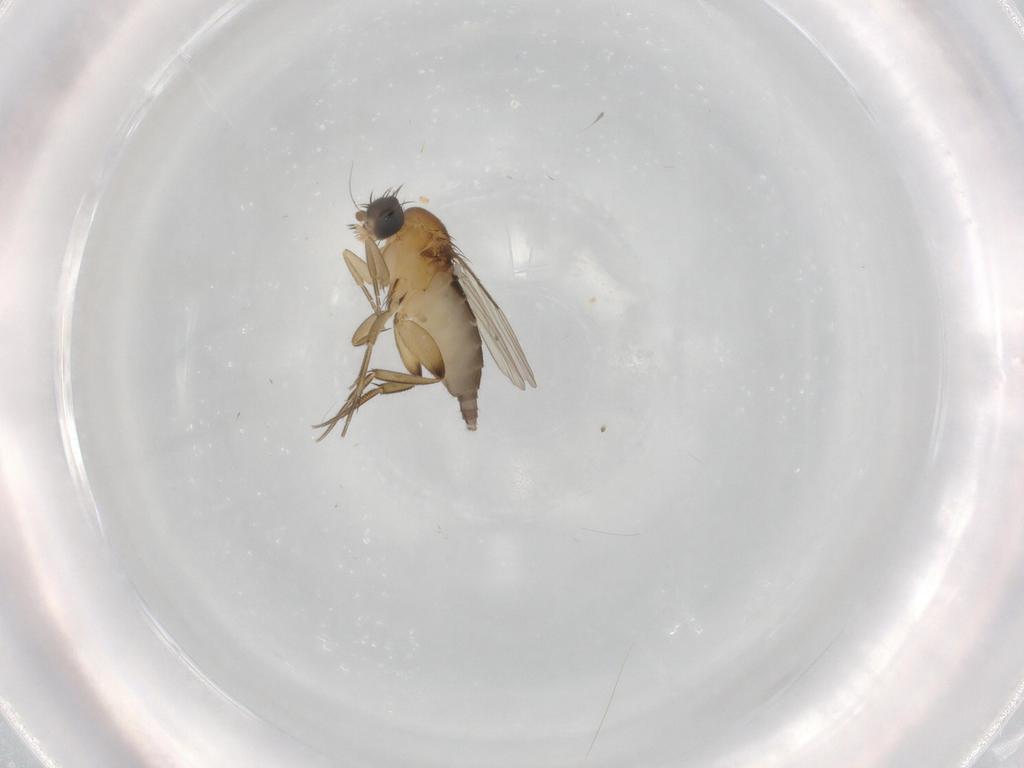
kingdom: Animalia
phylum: Arthropoda
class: Insecta
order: Diptera
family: Phoridae
